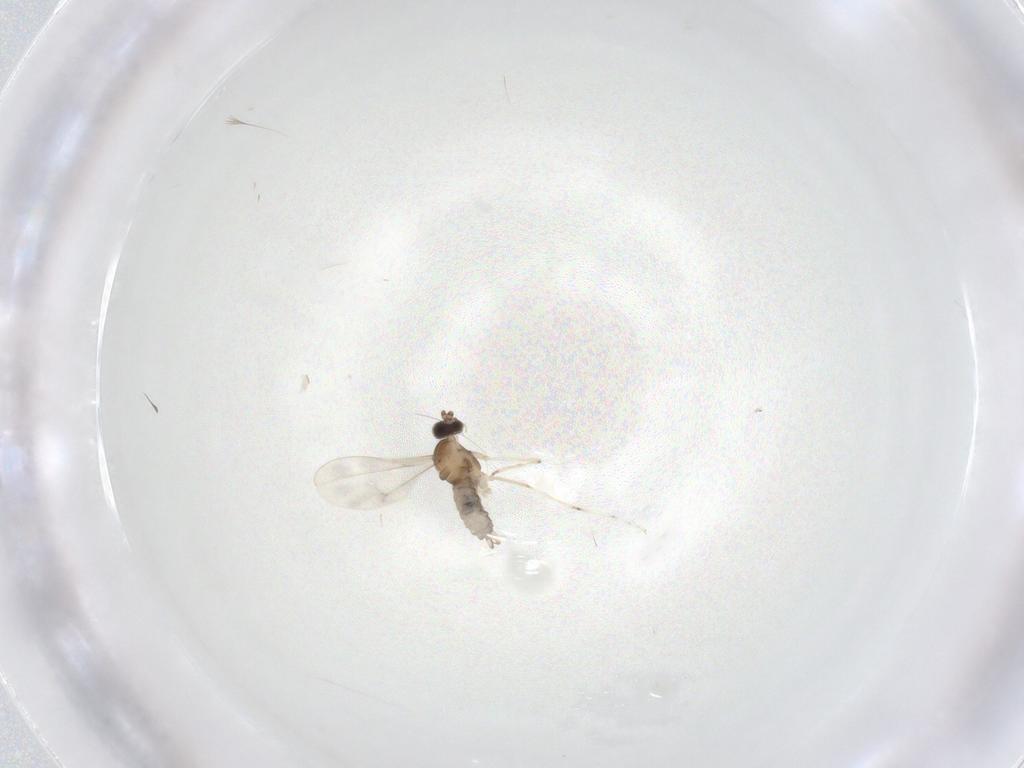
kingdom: Animalia
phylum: Arthropoda
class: Insecta
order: Diptera
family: Cecidomyiidae
